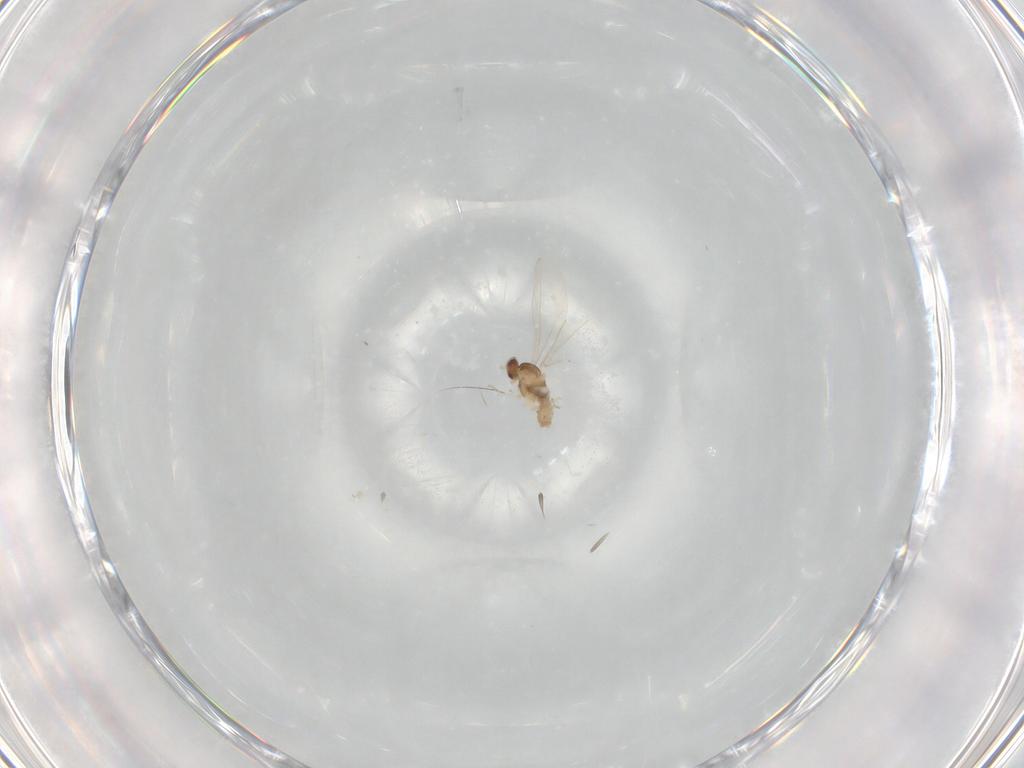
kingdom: Animalia
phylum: Arthropoda
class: Insecta
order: Diptera
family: Cecidomyiidae
